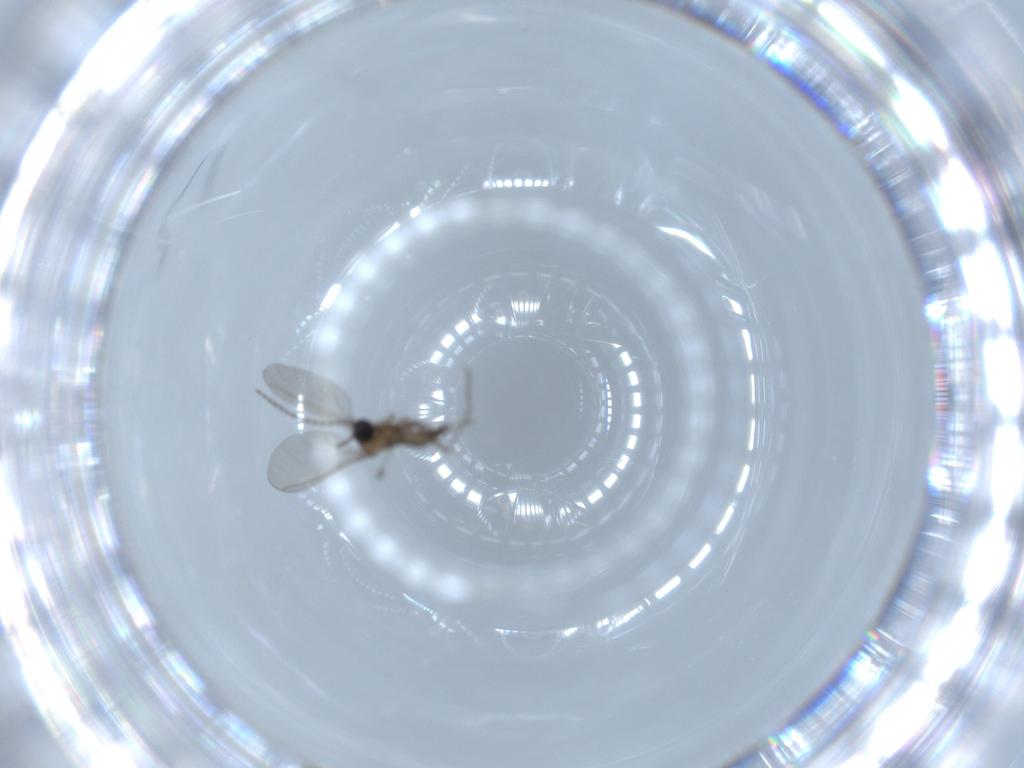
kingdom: Animalia
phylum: Arthropoda
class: Insecta
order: Diptera
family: Sciaridae
